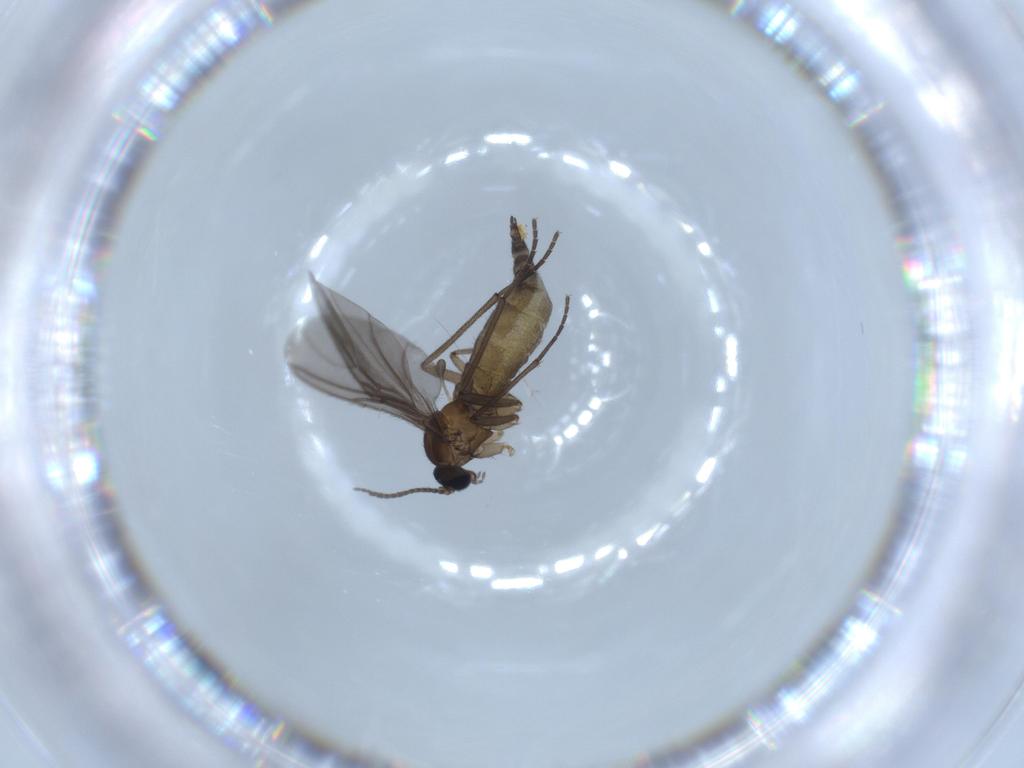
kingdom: Animalia
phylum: Arthropoda
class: Insecta
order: Diptera
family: Sciaridae
